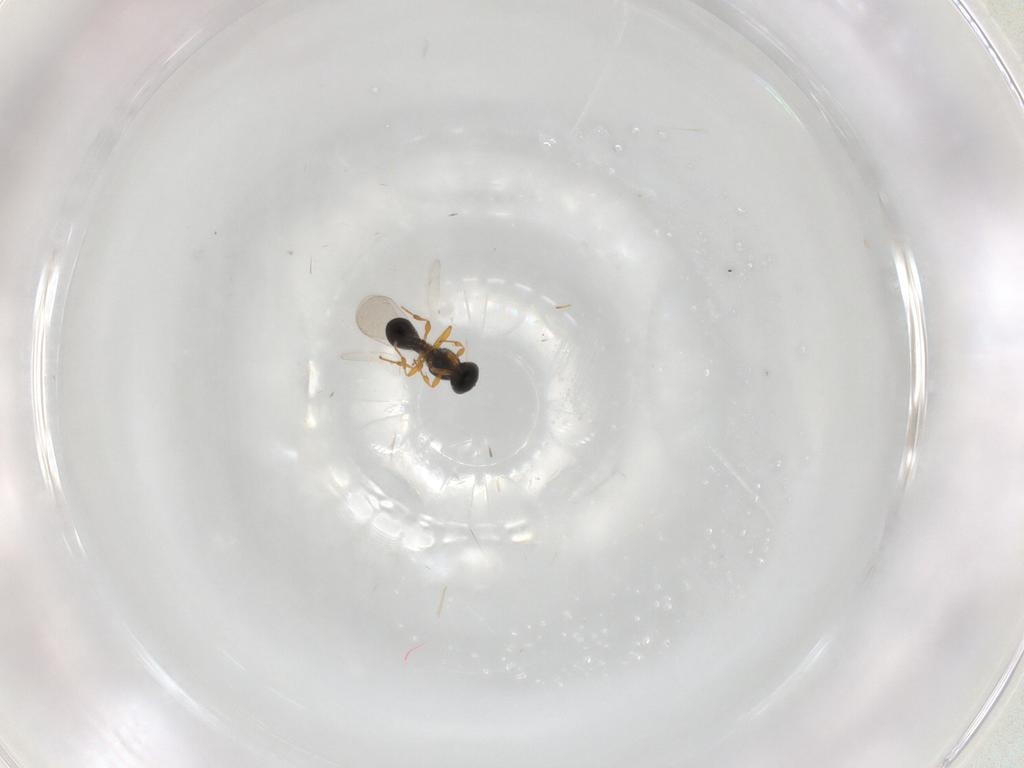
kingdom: Animalia
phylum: Arthropoda
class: Insecta
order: Hymenoptera
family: Platygastridae
